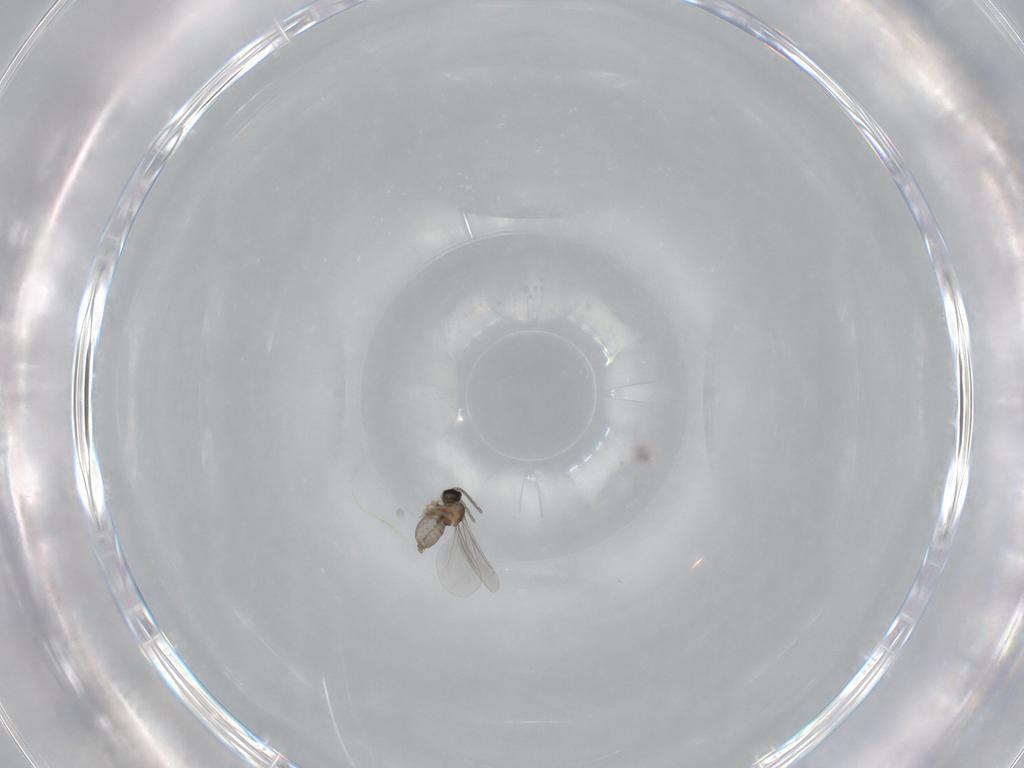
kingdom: Animalia
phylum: Arthropoda
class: Insecta
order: Diptera
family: Cecidomyiidae
